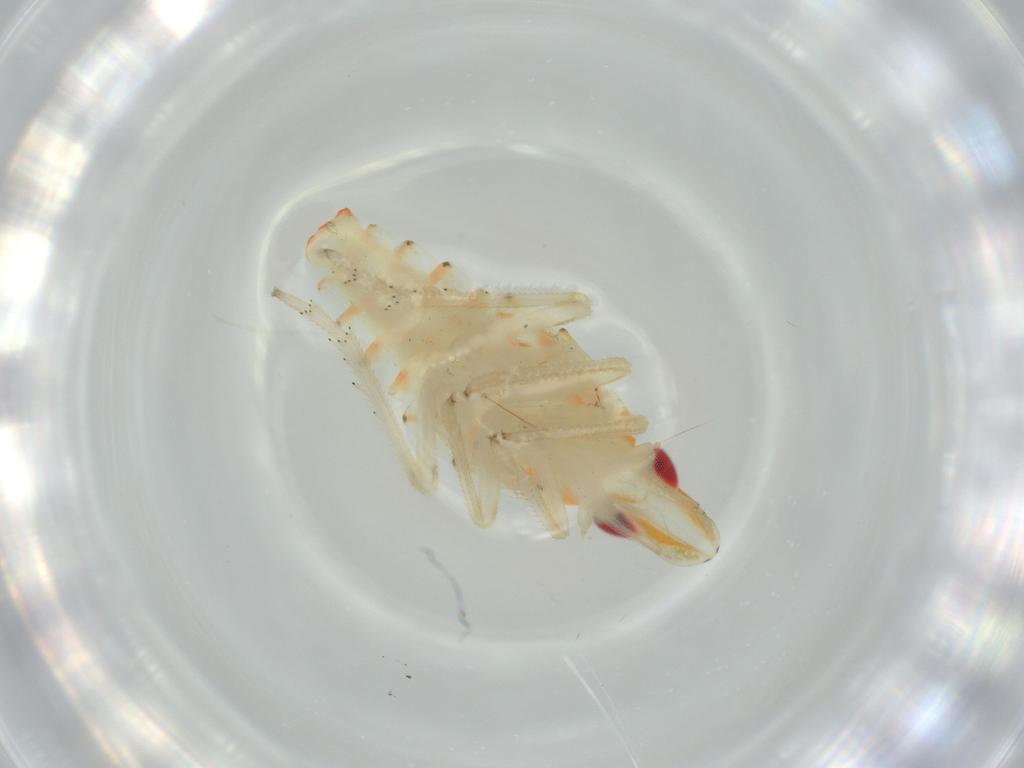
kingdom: Animalia
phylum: Arthropoda
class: Insecta
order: Hemiptera
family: Tropiduchidae
